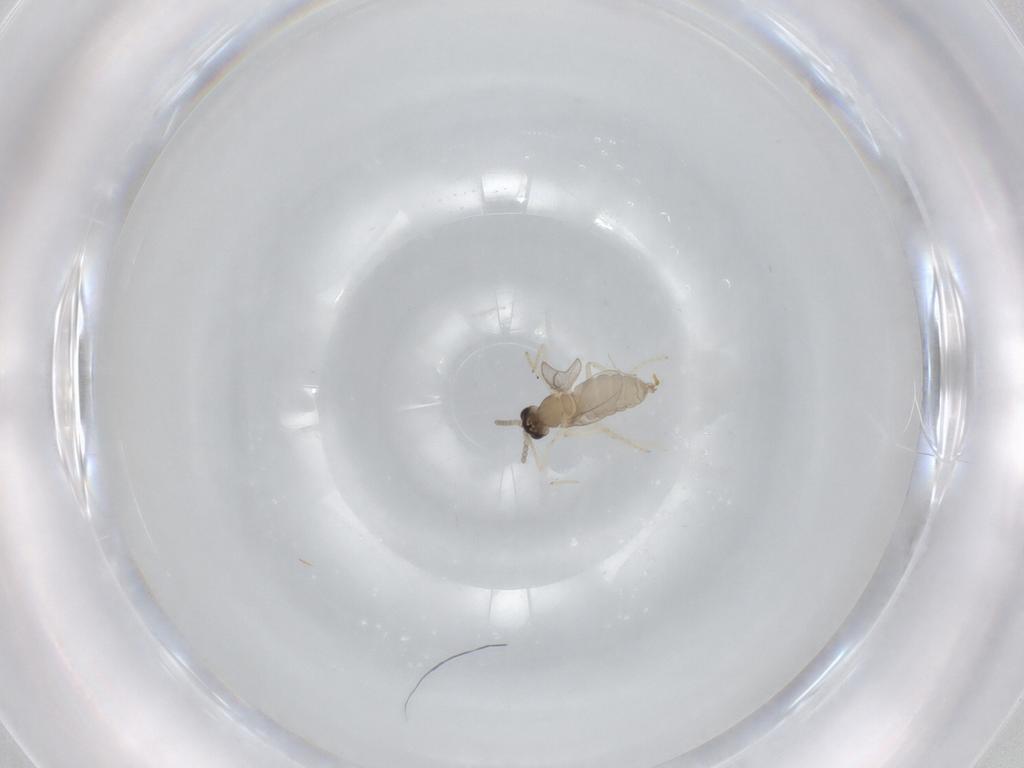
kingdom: Animalia
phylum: Arthropoda
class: Insecta
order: Diptera
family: Cecidomyiidae
